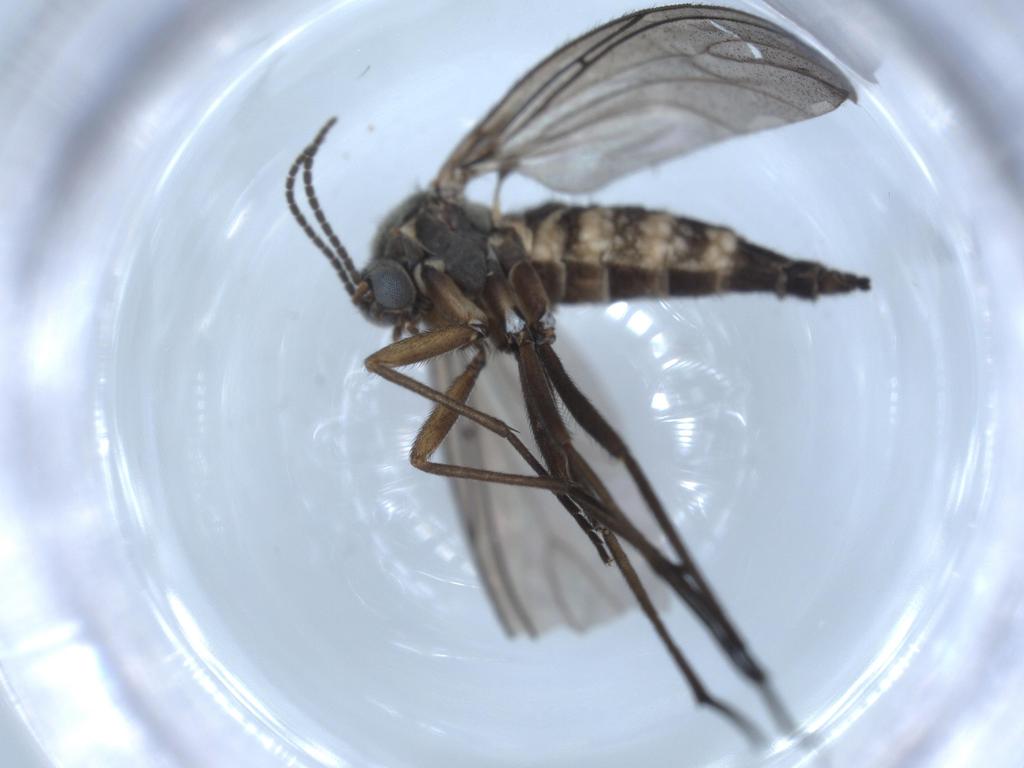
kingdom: Animalia
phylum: Arthropoda
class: Insecta
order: Diptera
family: Sciaridae
